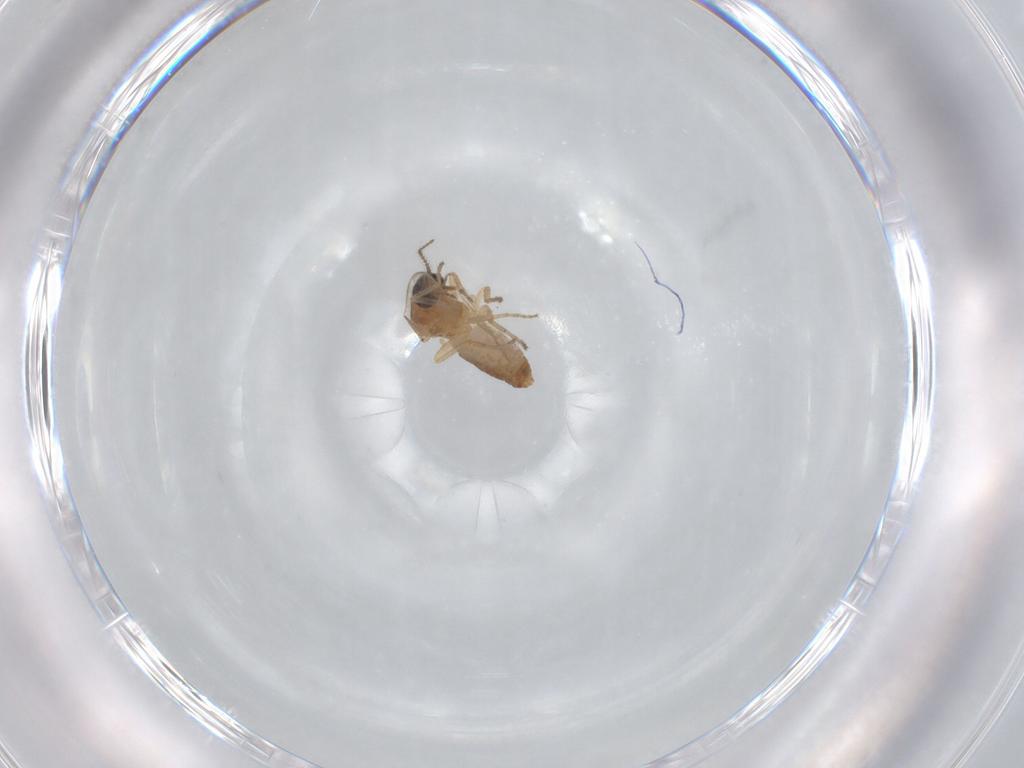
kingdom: Animalia
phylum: Arthropoda
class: Insecta
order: Diptera
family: Ceratopogonidae
